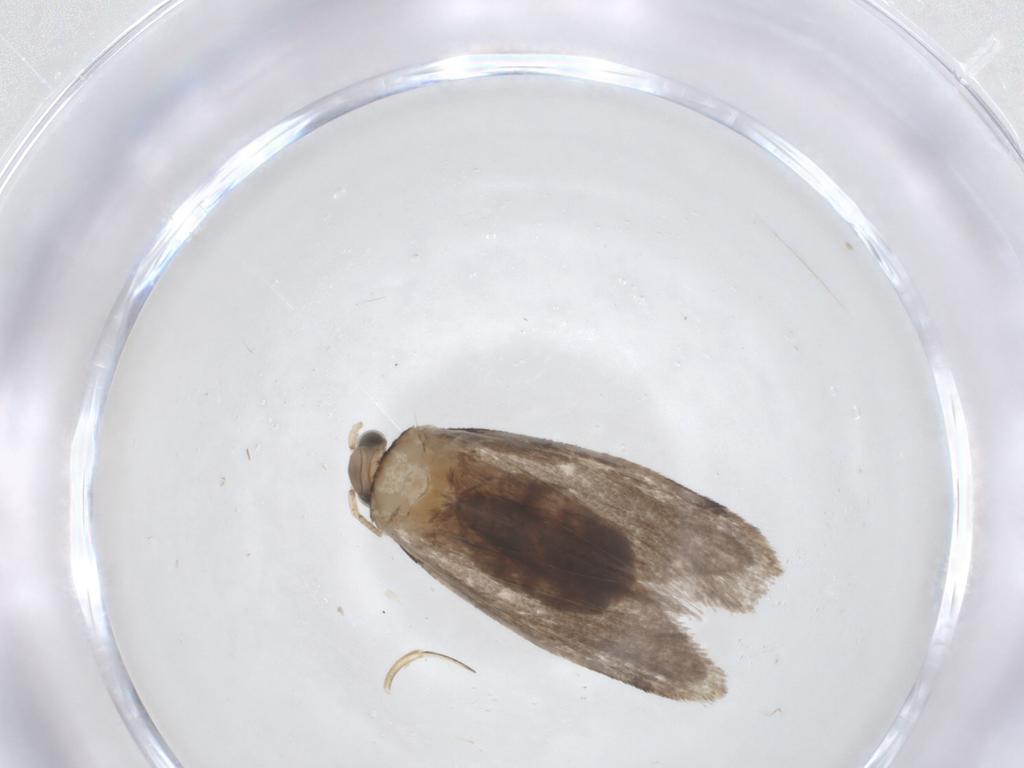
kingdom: Animalia
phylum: Arthropoda
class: Insecta
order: Lepidoptera
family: Tineidae
